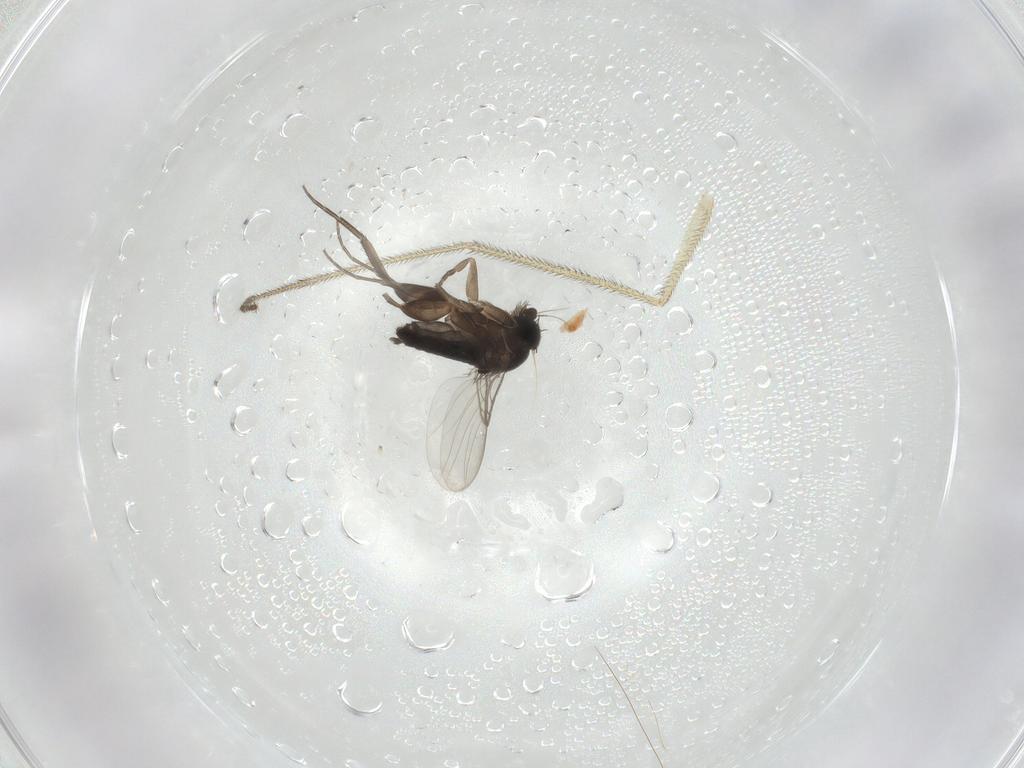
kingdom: Animalia
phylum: Arthropoda
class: Insecta
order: Diptera
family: Phoridae
